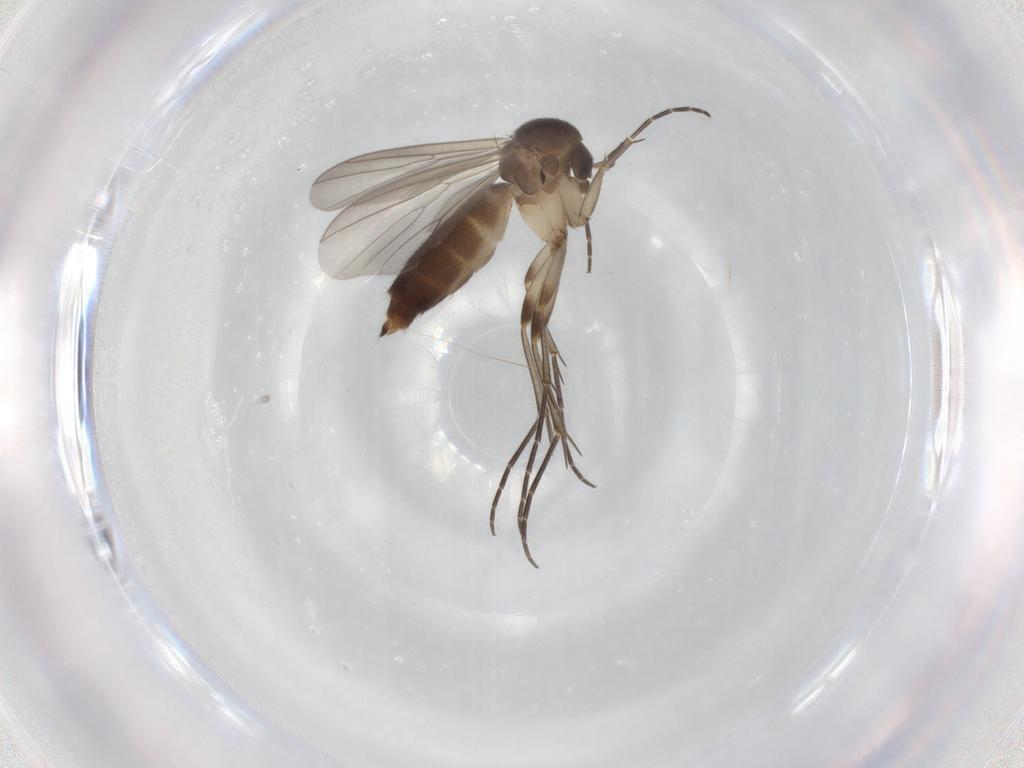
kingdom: Animalia
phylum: Arthropoda
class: Insecta
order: Diptera
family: Mycetophilidae
